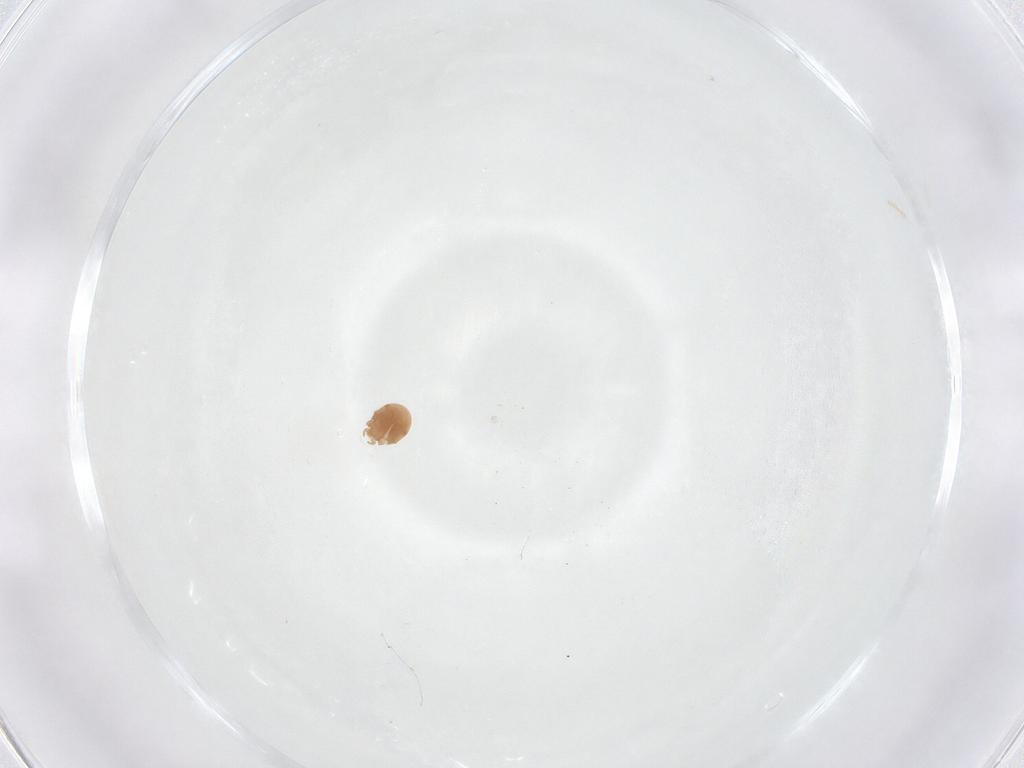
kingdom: Animalia
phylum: Arthropoda
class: Arachnida
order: Mesostigmata
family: Trematuridae
